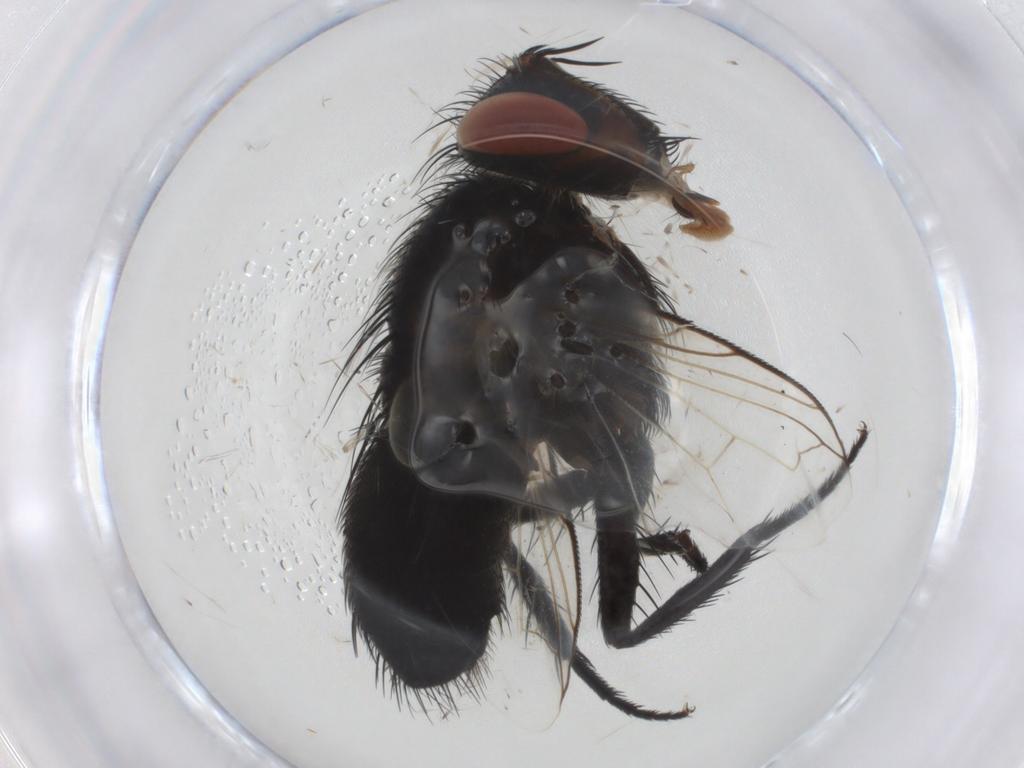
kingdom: Animalia
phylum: Arthropoda
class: Insecta
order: Diptera
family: Tachinidae
